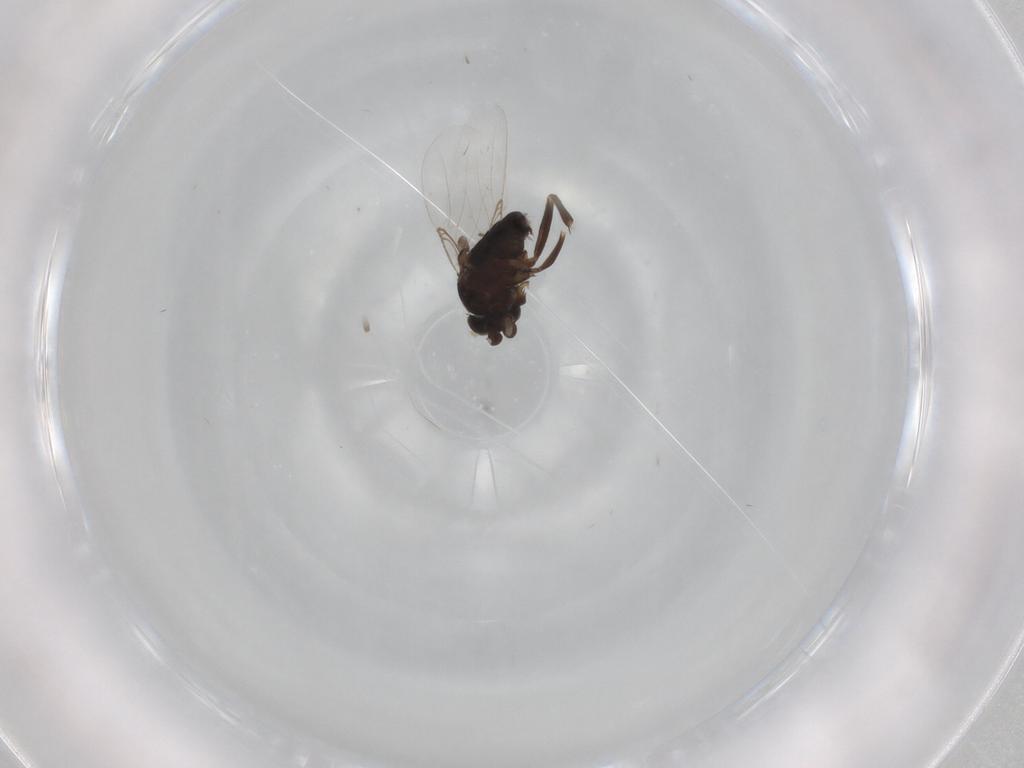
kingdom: Animalia
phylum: Arthropoda
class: Insecta
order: Diptera
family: Phoridae
